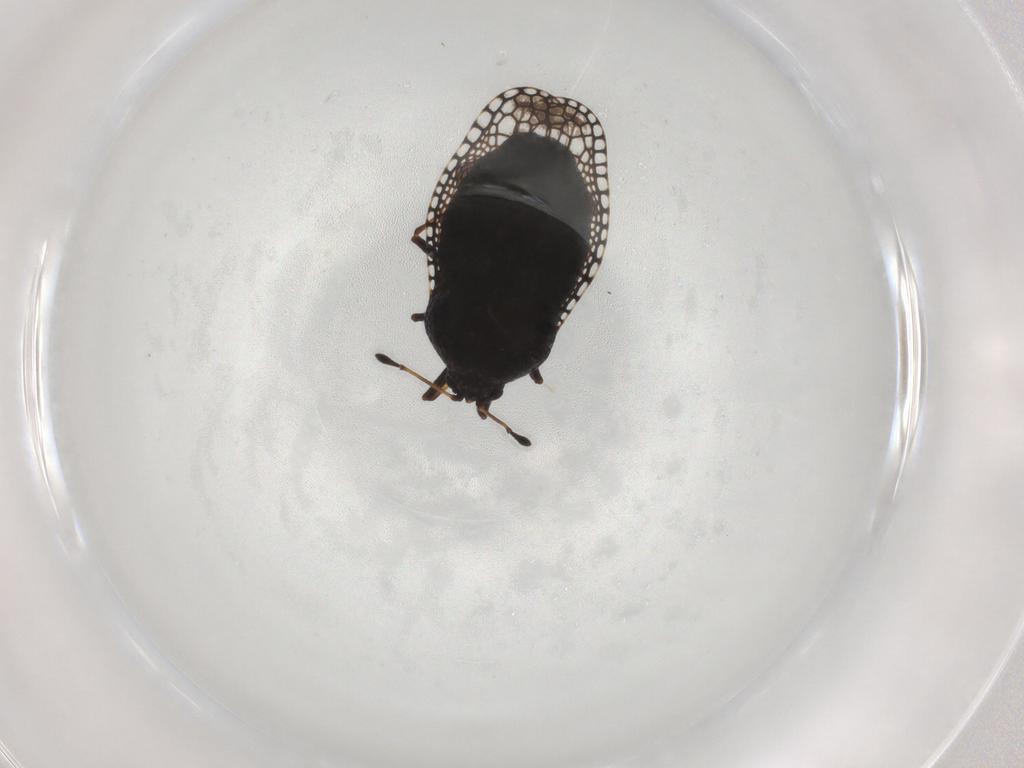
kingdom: Animalia
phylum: Arthropoda
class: Insecta
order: Hemiptera
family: Tingidae
